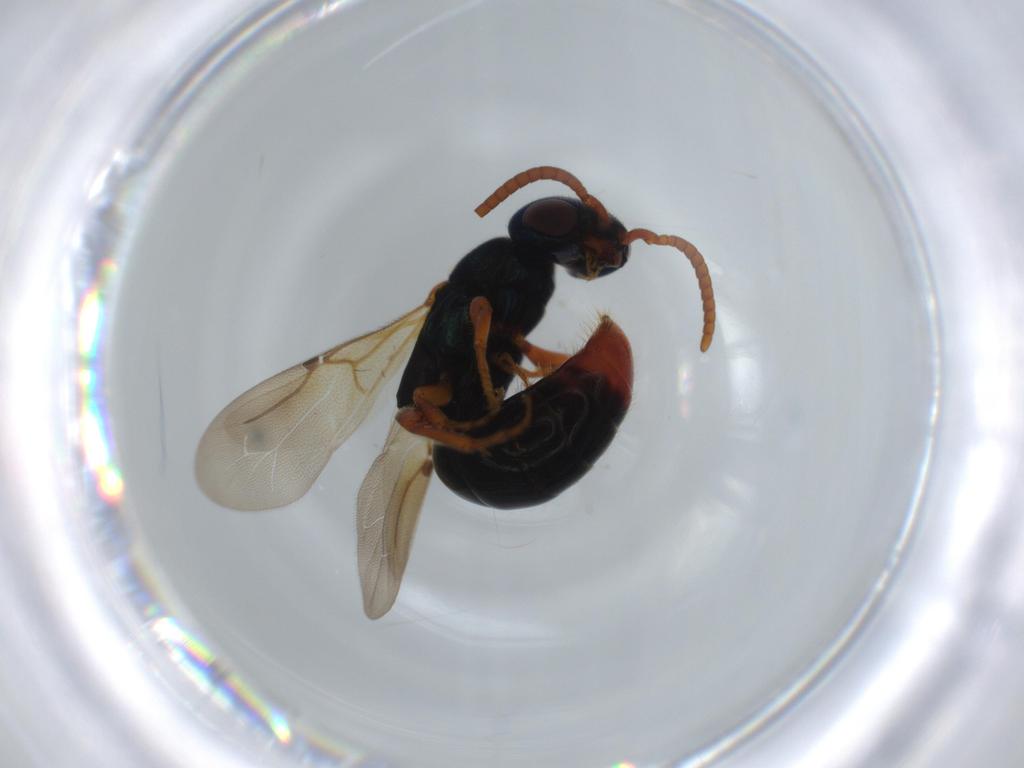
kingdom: Animalia
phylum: Arthropoda
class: Insecta
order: Hymenoptera
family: Bethylidae
